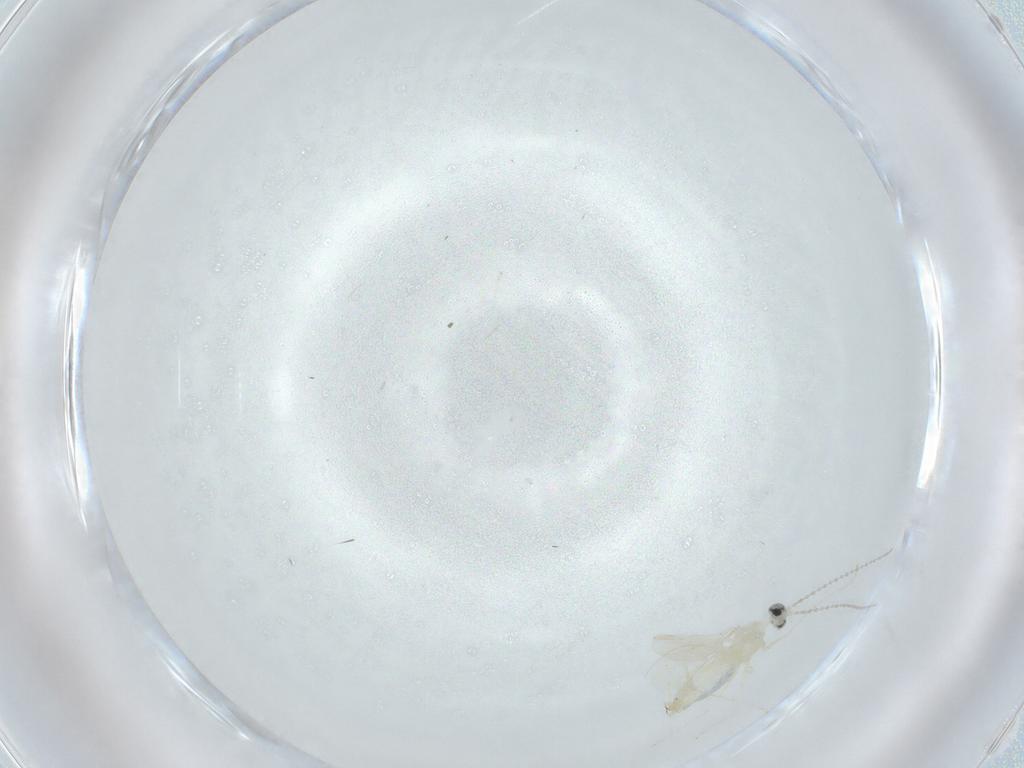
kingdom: Animalia
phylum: Arthropoda
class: Insecta
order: Diptera
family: Cecidomyiidae
